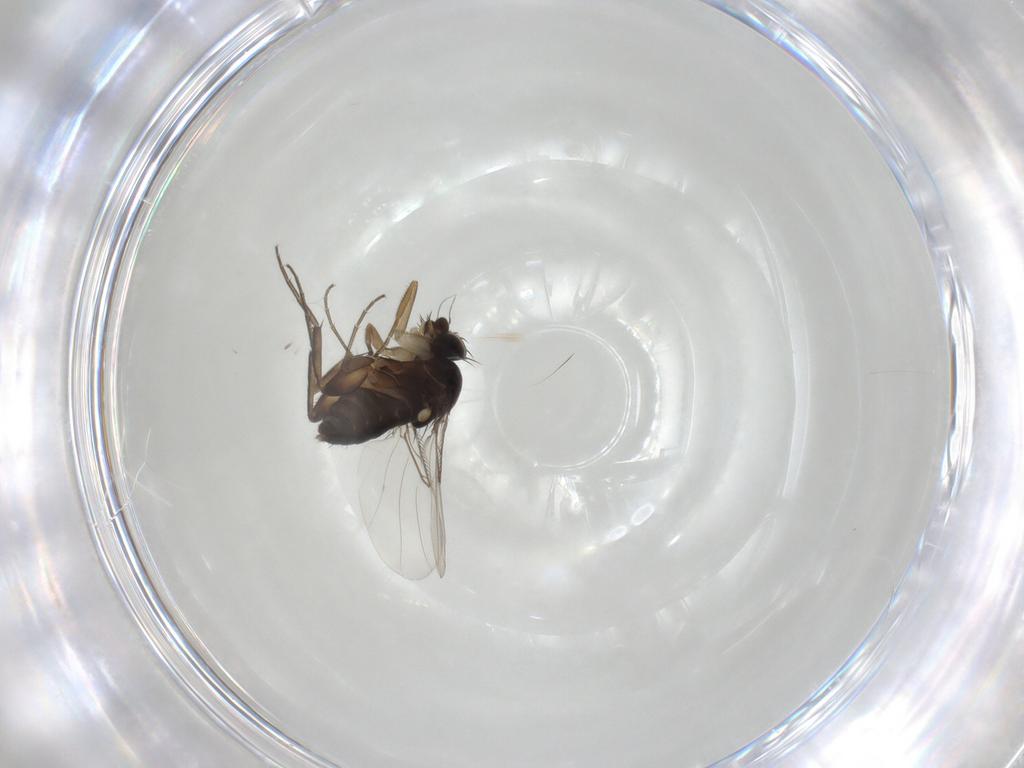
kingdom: Animalia
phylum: Arthropoda
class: Insecta
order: Diptera
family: Phoridae
